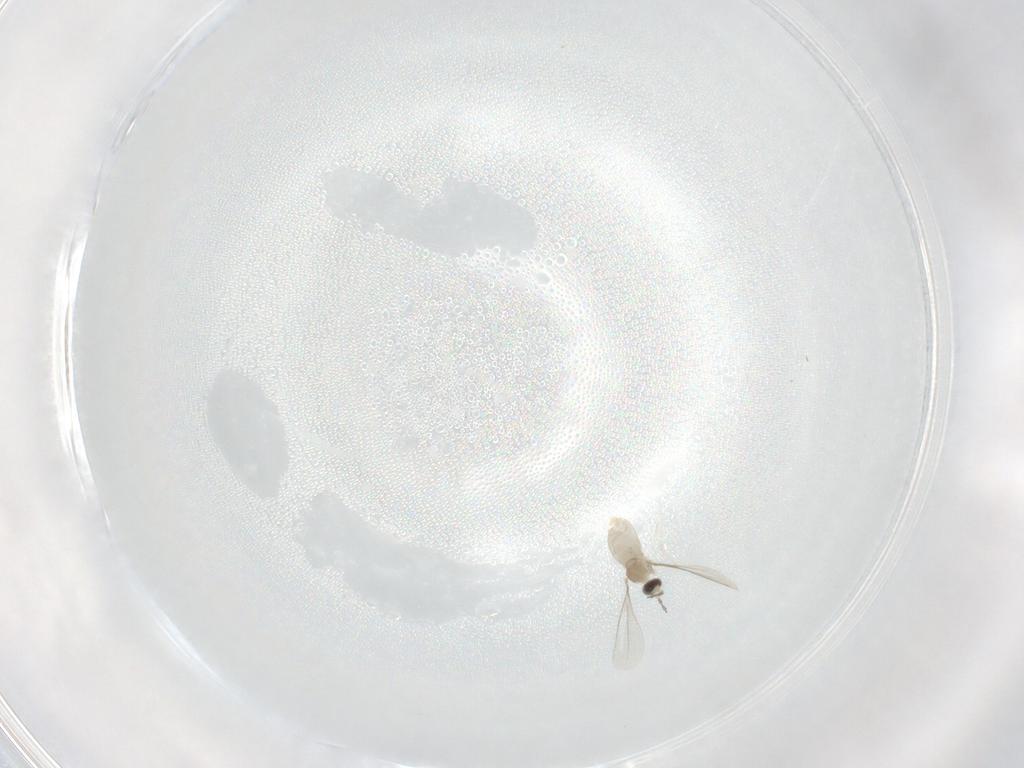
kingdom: Animalia
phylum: Arthropoda
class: Insecta
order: Diptera
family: Cecidomyiidae
